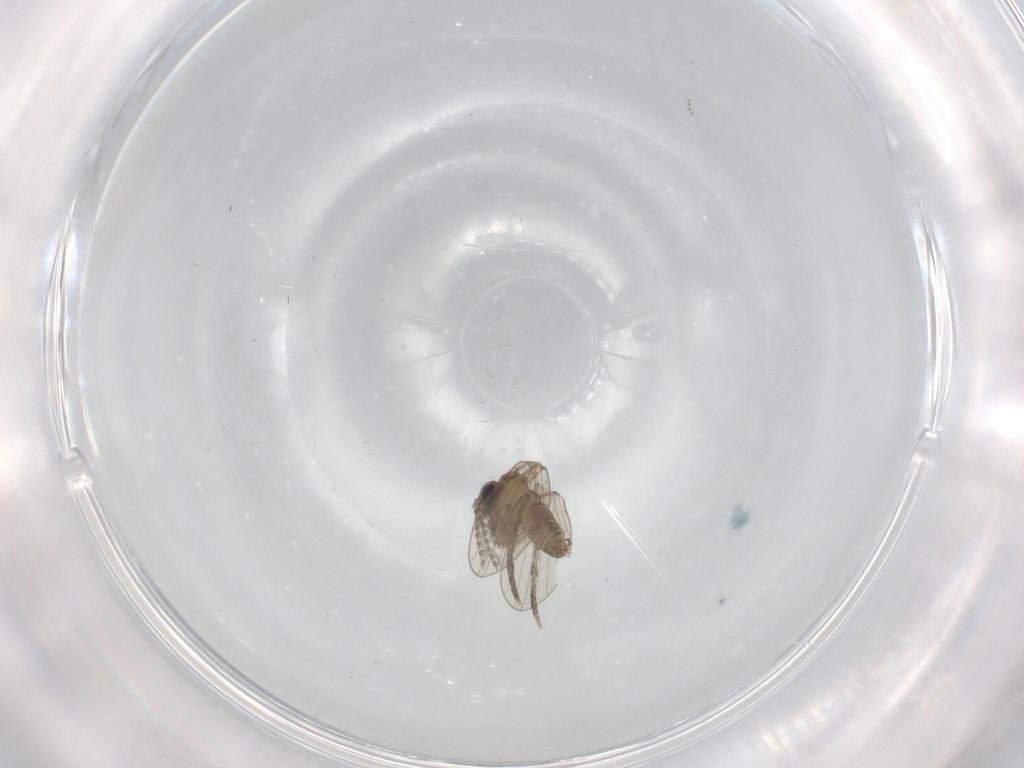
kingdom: Animalia
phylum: Arthropoda
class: Insecta
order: Diptera
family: Psychodidae
